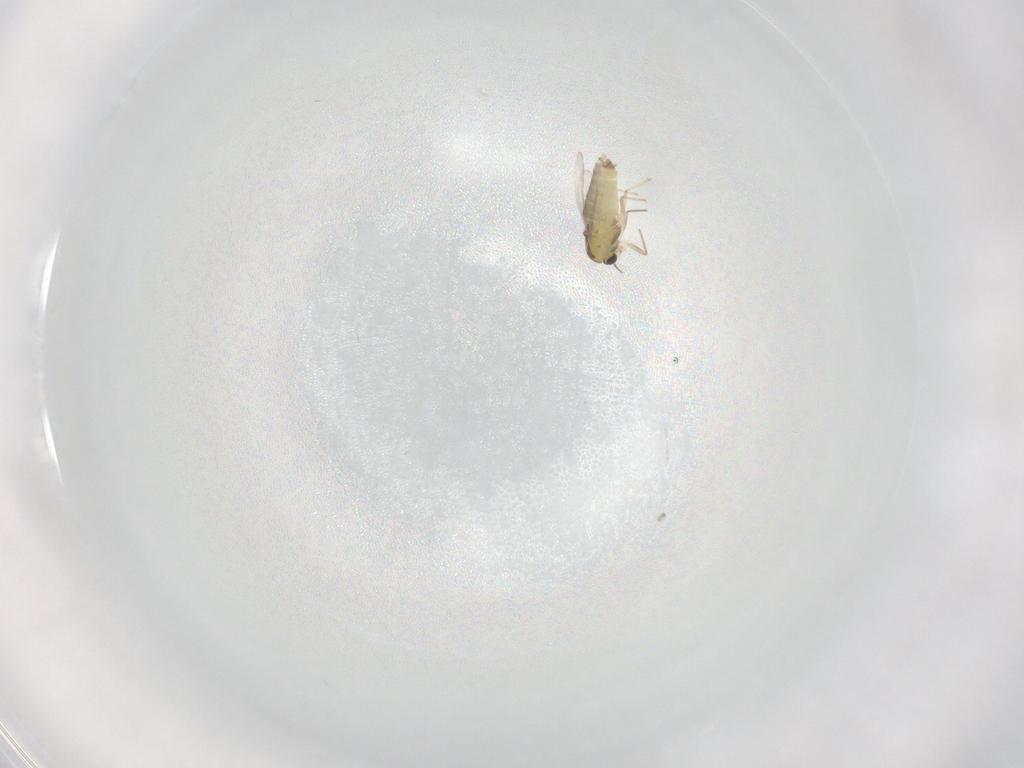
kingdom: Animalia
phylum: Arthropoda
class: Insecta
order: Diptera
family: Chironomidae
